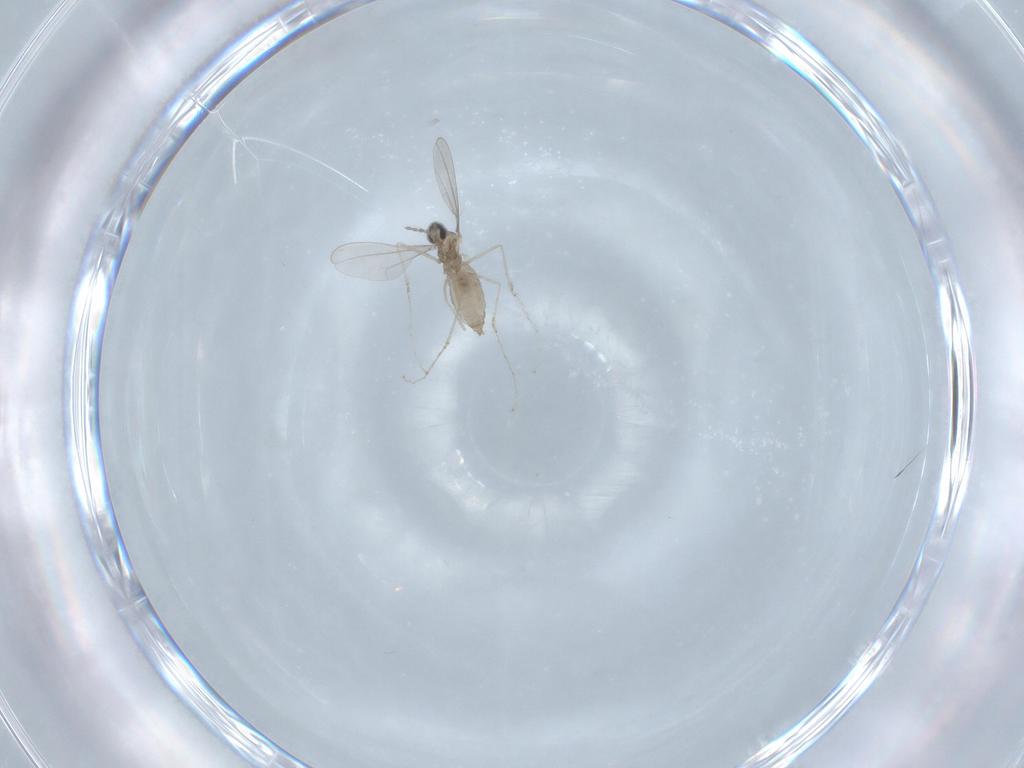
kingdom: Animalia
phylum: Arthropoda
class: Insecta
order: Diptera
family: Cecidomyiidae
